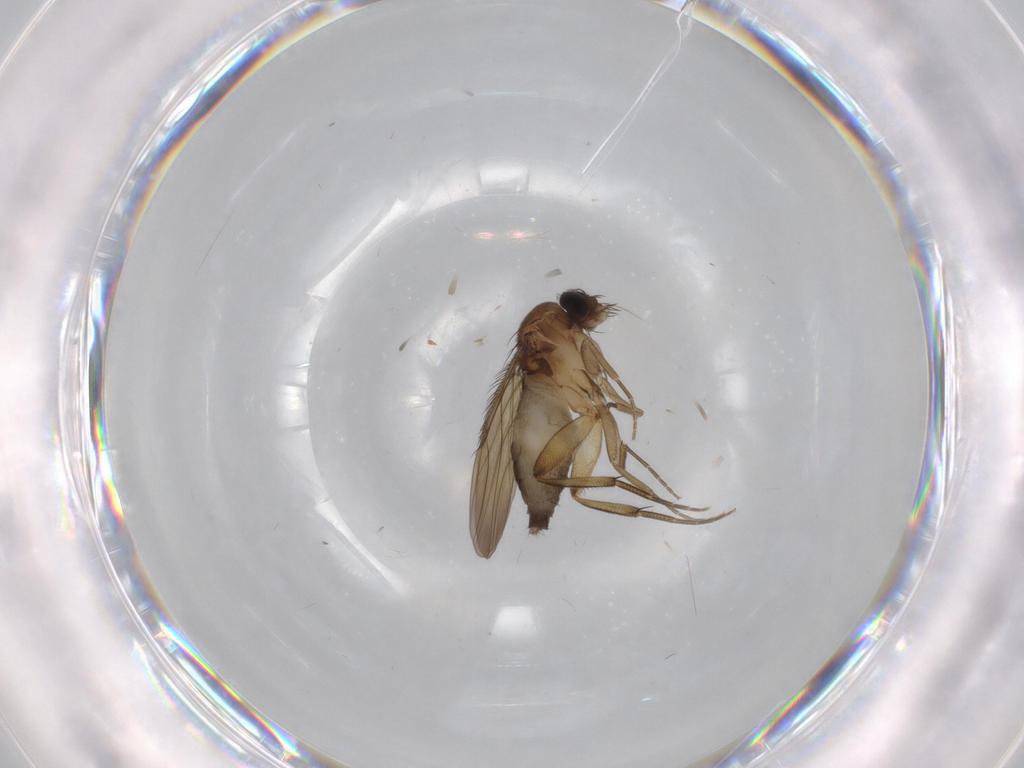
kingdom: Animalia
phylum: Arthropoda
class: Insecta
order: Diptera
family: Phoridae
